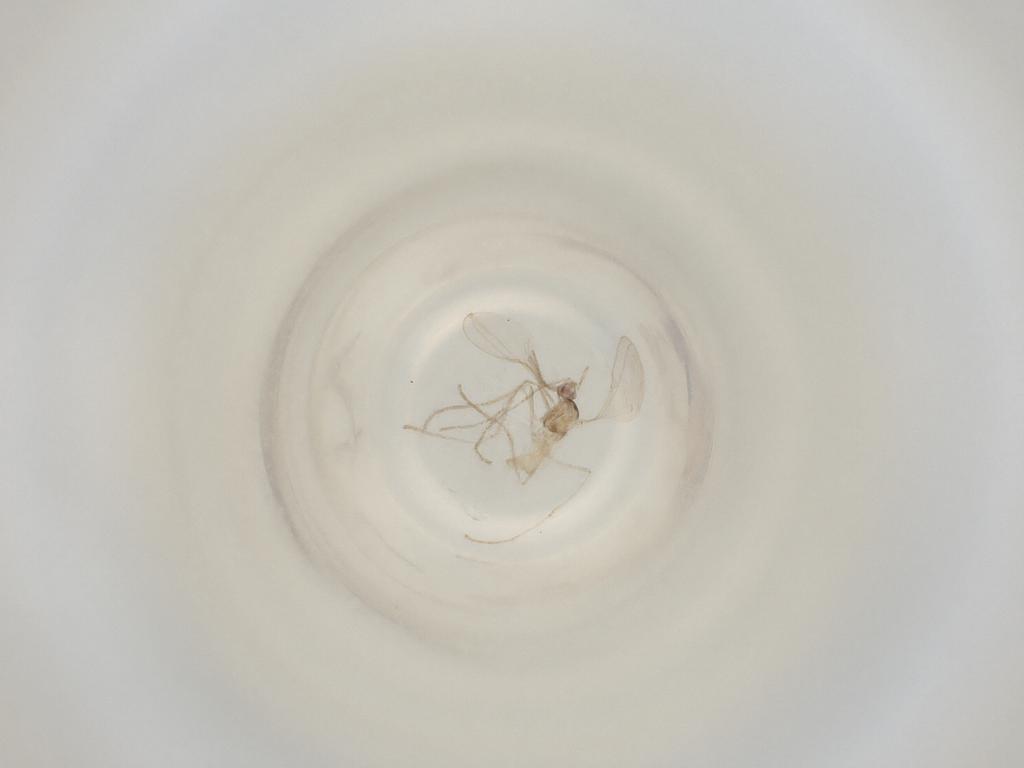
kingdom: Animalia
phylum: Arthropoda
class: Insecta
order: Diptera
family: Cecidomyiidae
